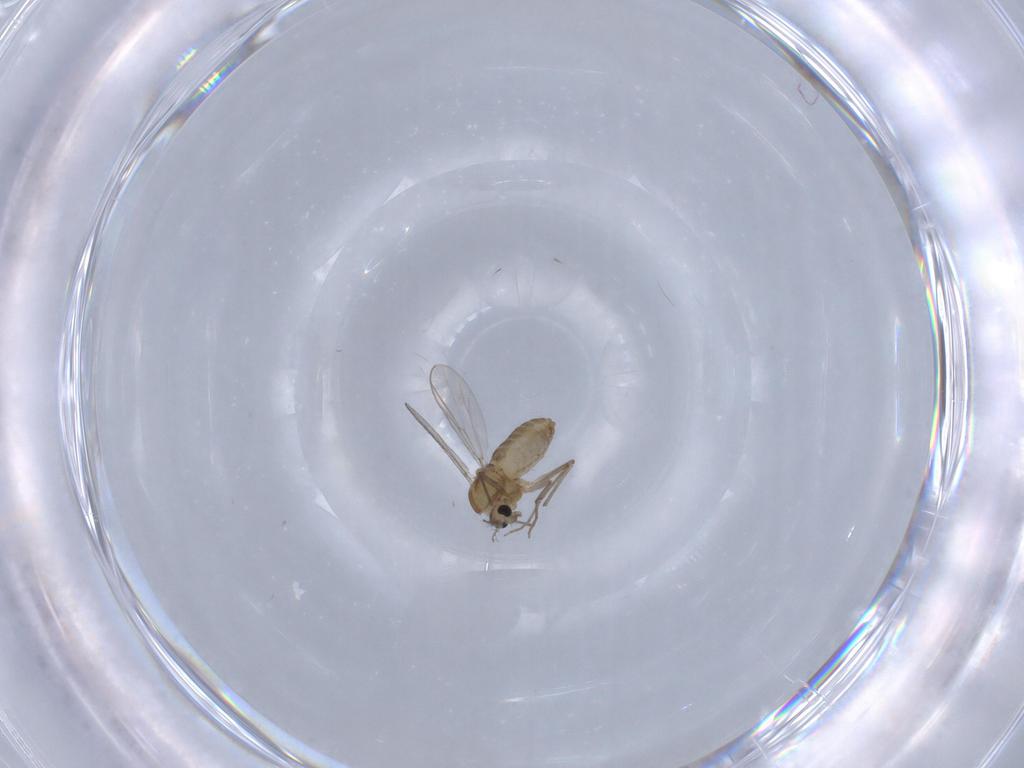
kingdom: Animalia
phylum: Arthropoda
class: Insecta
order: Diptera
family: Chironomidae
